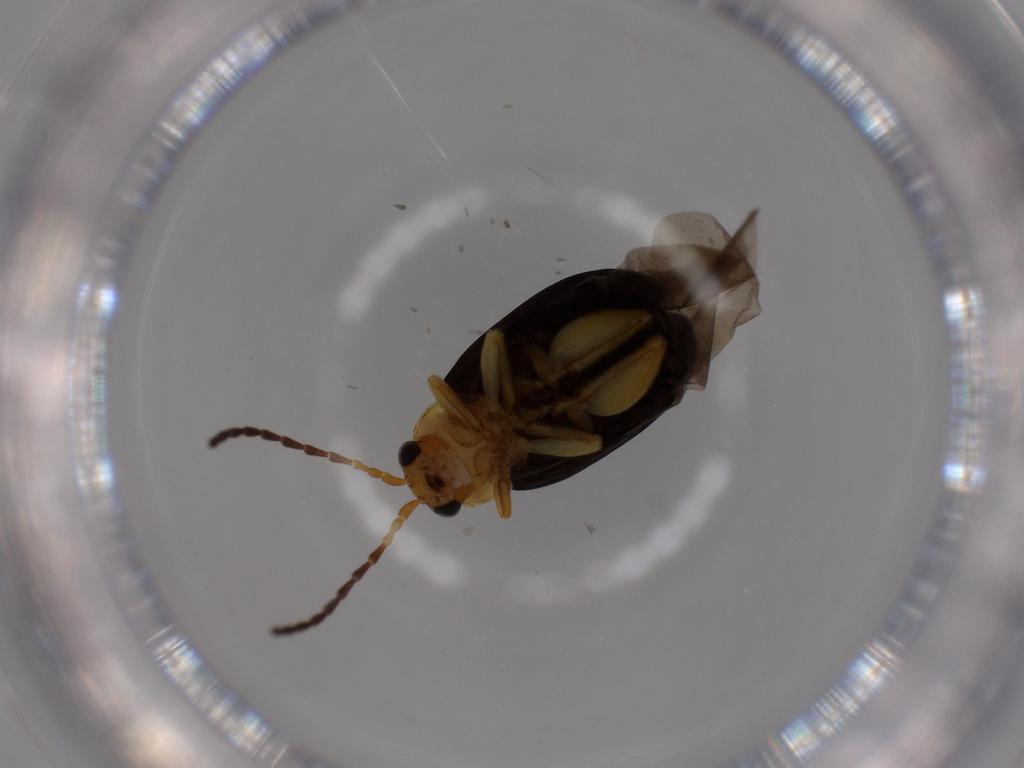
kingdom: Animalia
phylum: Arthropoda
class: Insecta
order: Coleoptera
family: Chrysomelidae
